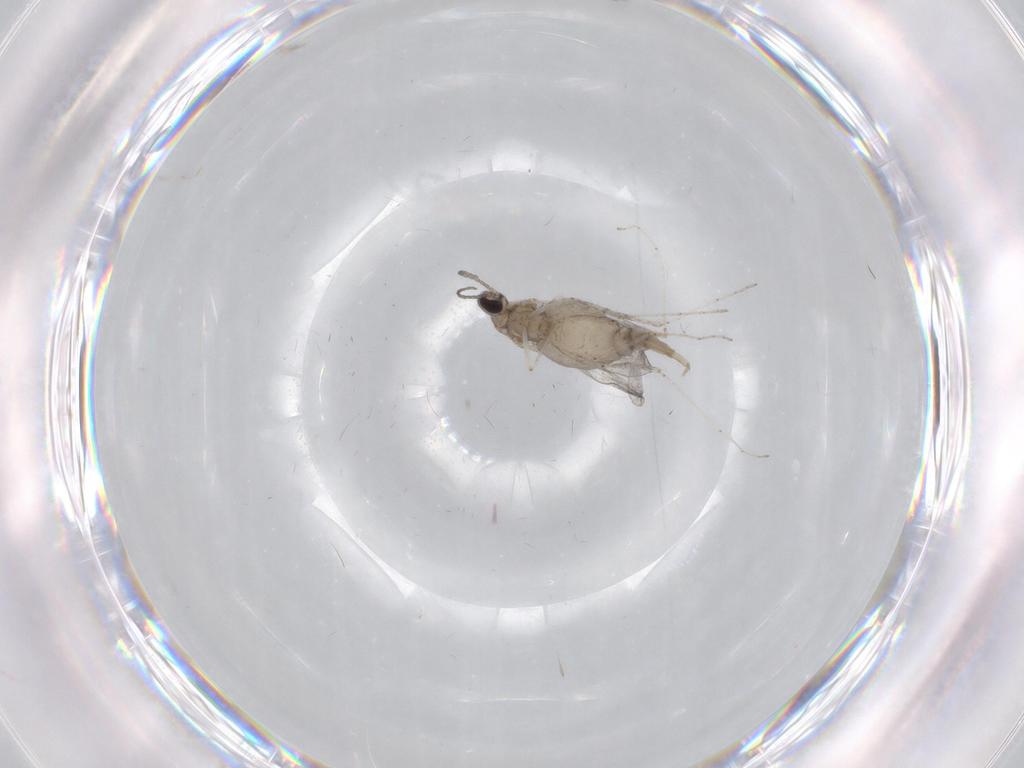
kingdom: Animalia
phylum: Arthropoda
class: Insecta
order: Diptera
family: Cecidomyiidae
